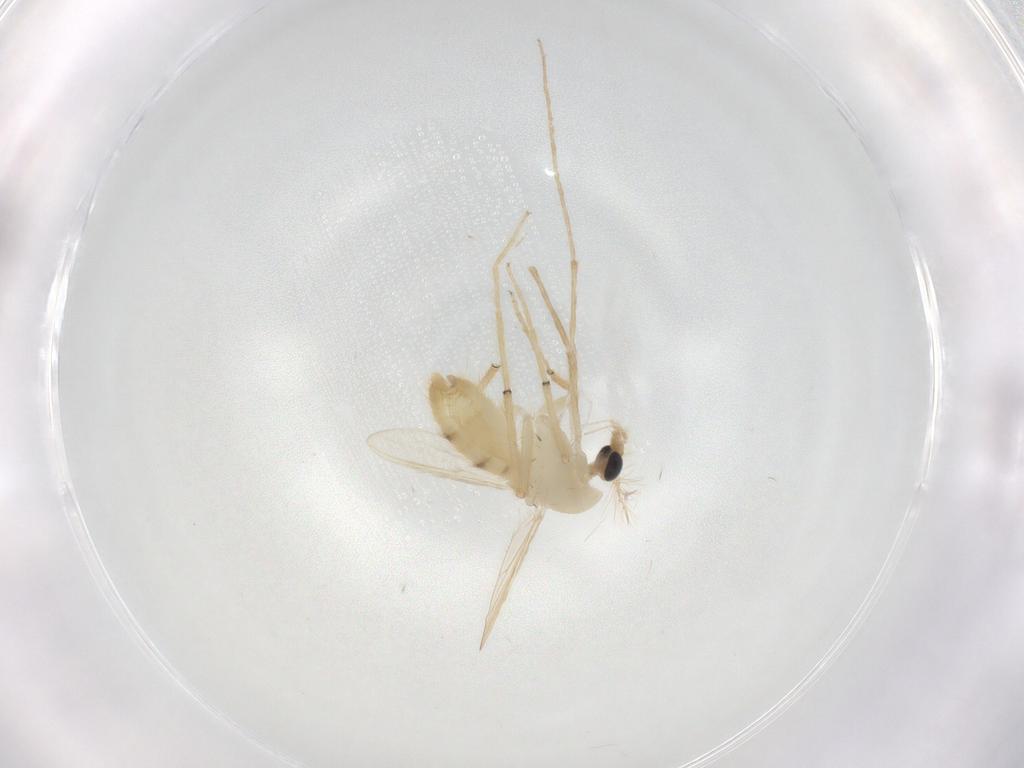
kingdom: Animalia
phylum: Arthropoda
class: Insecta
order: Diptera
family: Chironomidae
